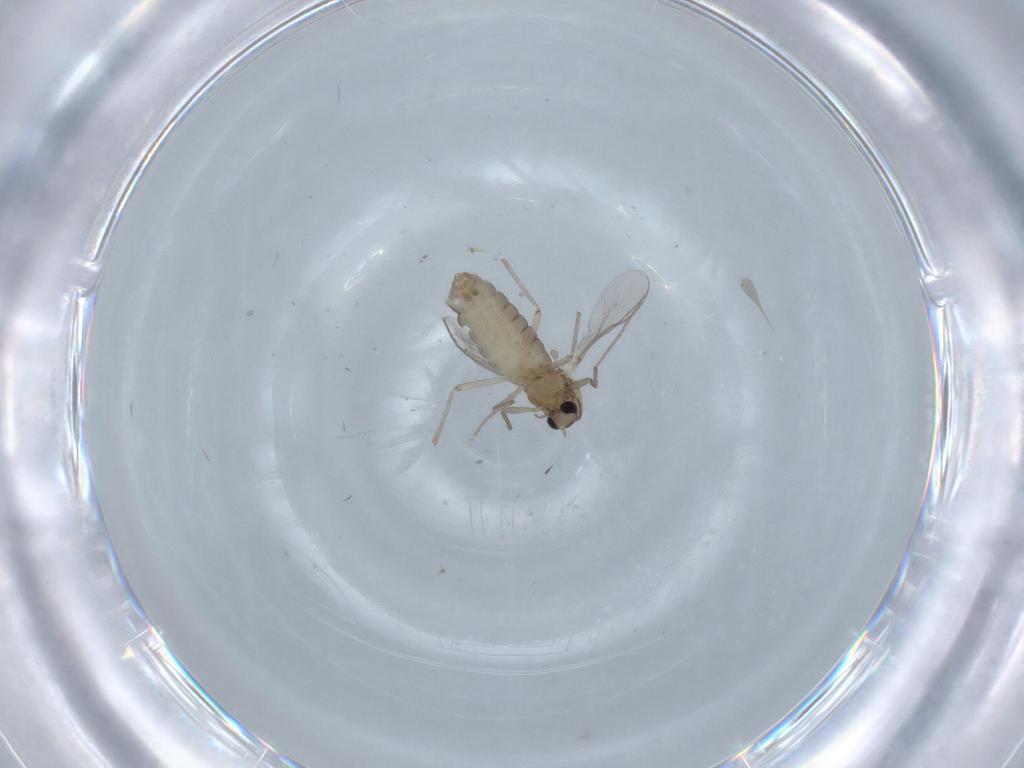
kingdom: Animalia
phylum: Arthropoda
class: Insecta
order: Diptera
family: Chironomidae
